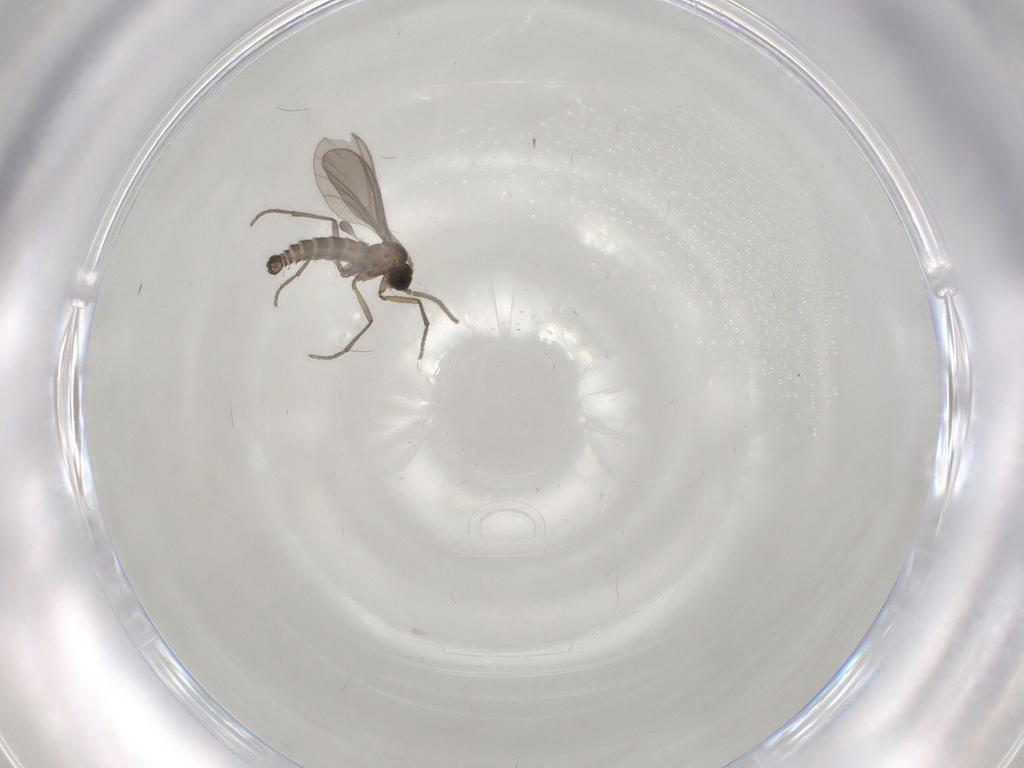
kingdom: Animalia
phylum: Arthropoda
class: Insecta
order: Diptera
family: Sciaridae
